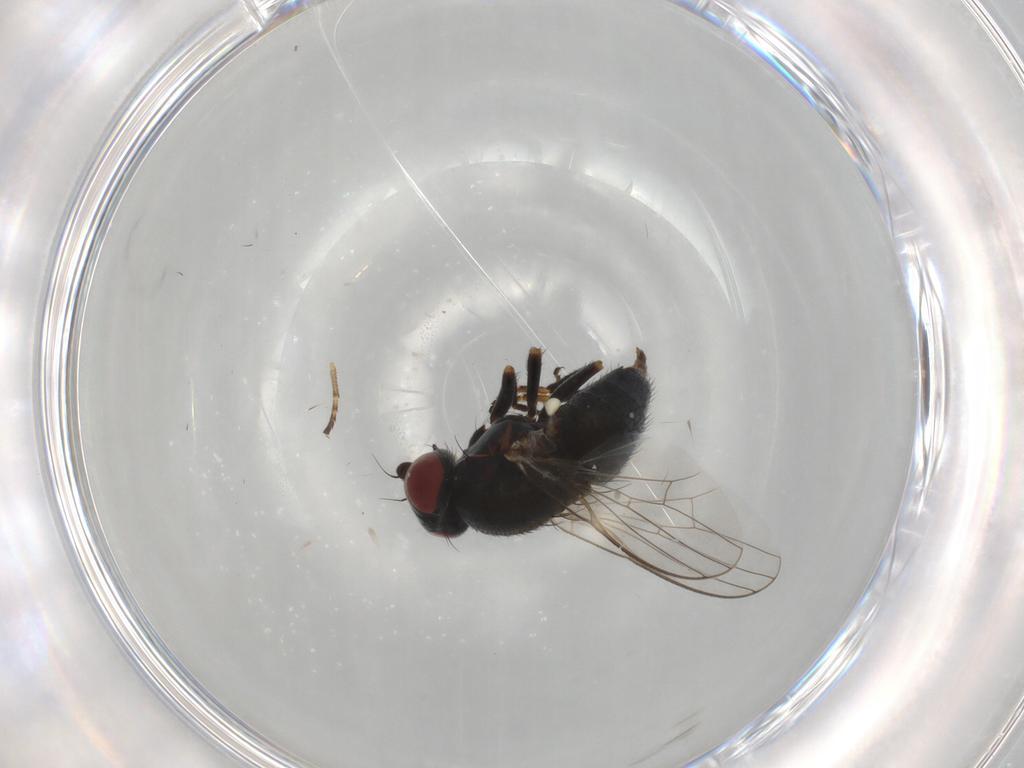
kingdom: Animalia
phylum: Arthropoda
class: Insecta
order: Diptera
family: Chamaemyiidae
